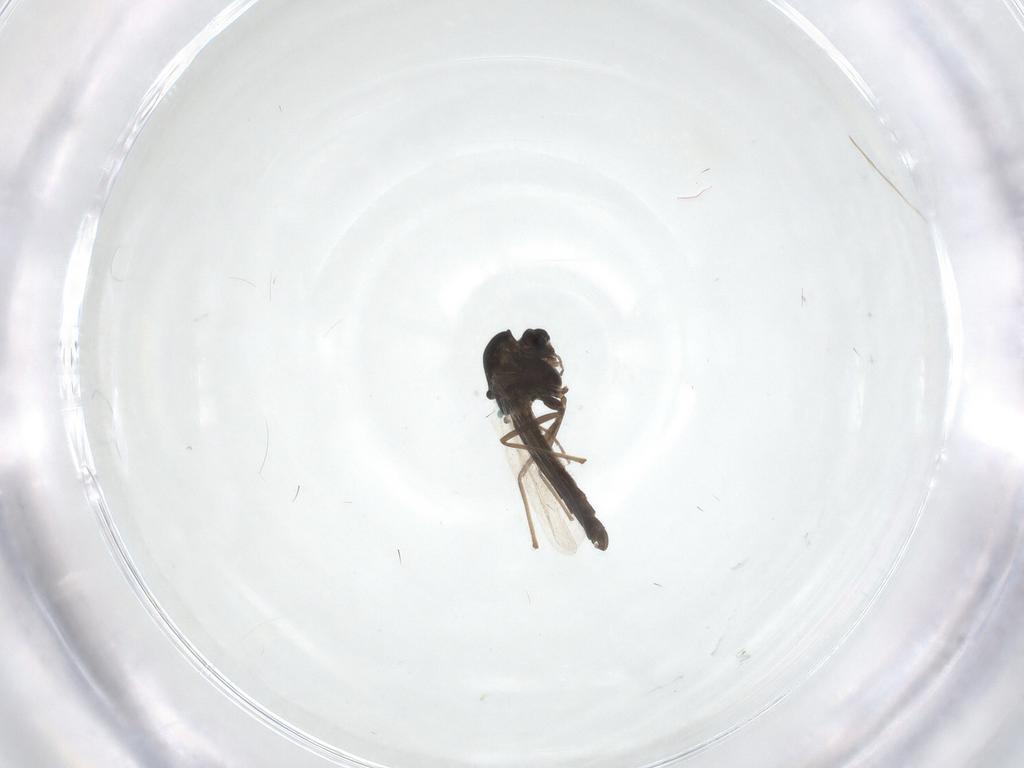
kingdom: Animalia
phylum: Arthropoda
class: Insecta
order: Diptera
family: Chironomidae
